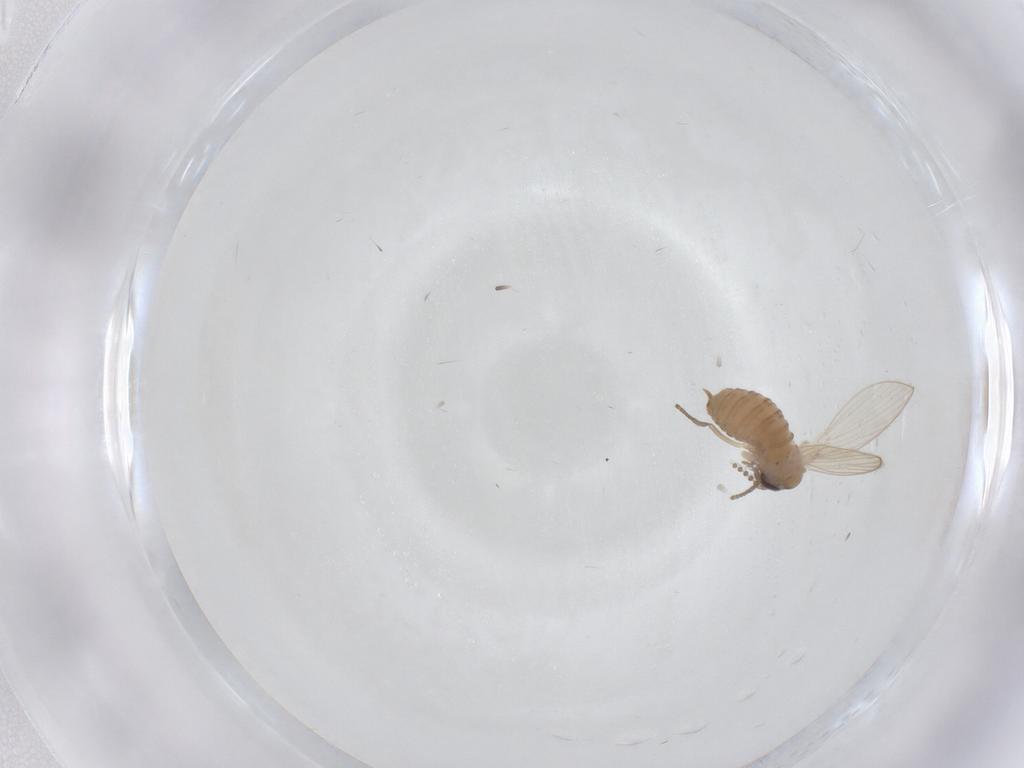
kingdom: Animalia
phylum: Arthropoda
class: Insecta
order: Diptera
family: Psychodidae
